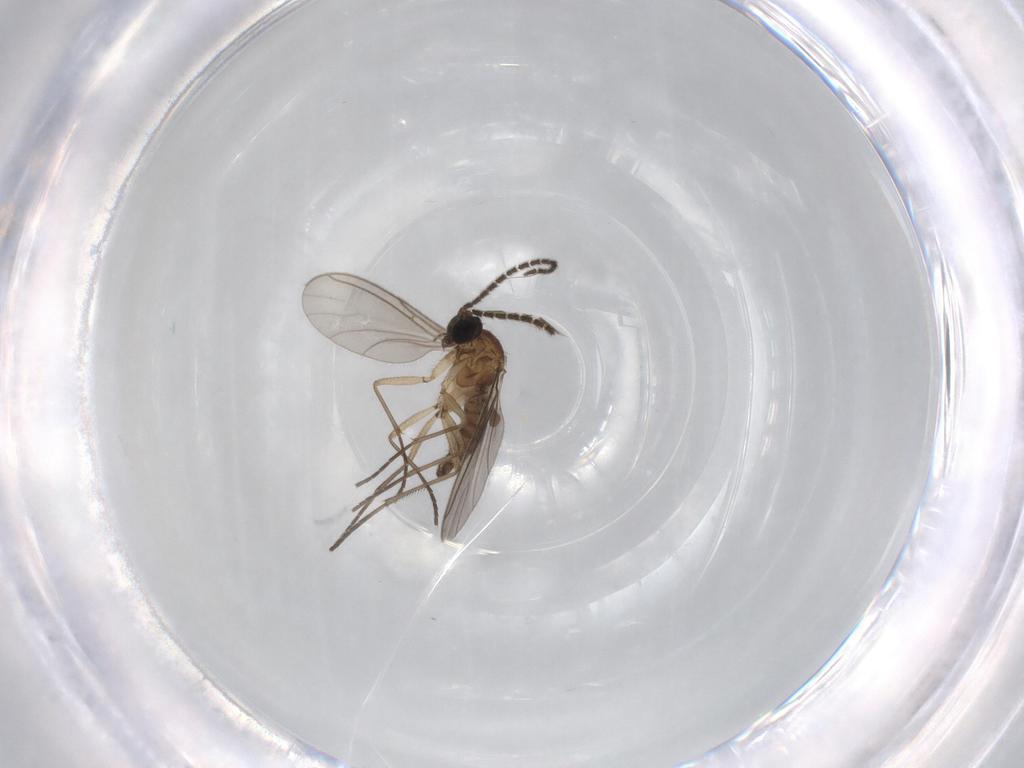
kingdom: Animalia
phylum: Arthropoda
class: Insecta
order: Diptera
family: Sciaridae
